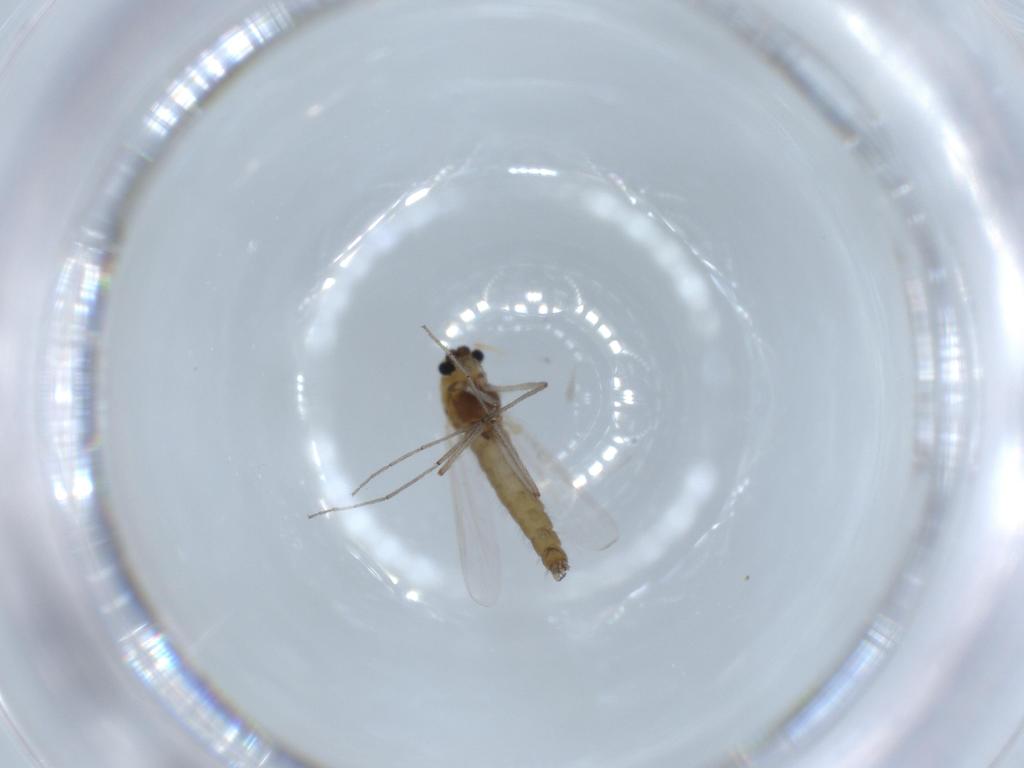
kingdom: Animalia
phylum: Arthropoda
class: Insecta
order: Diptera
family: Chironomidae
